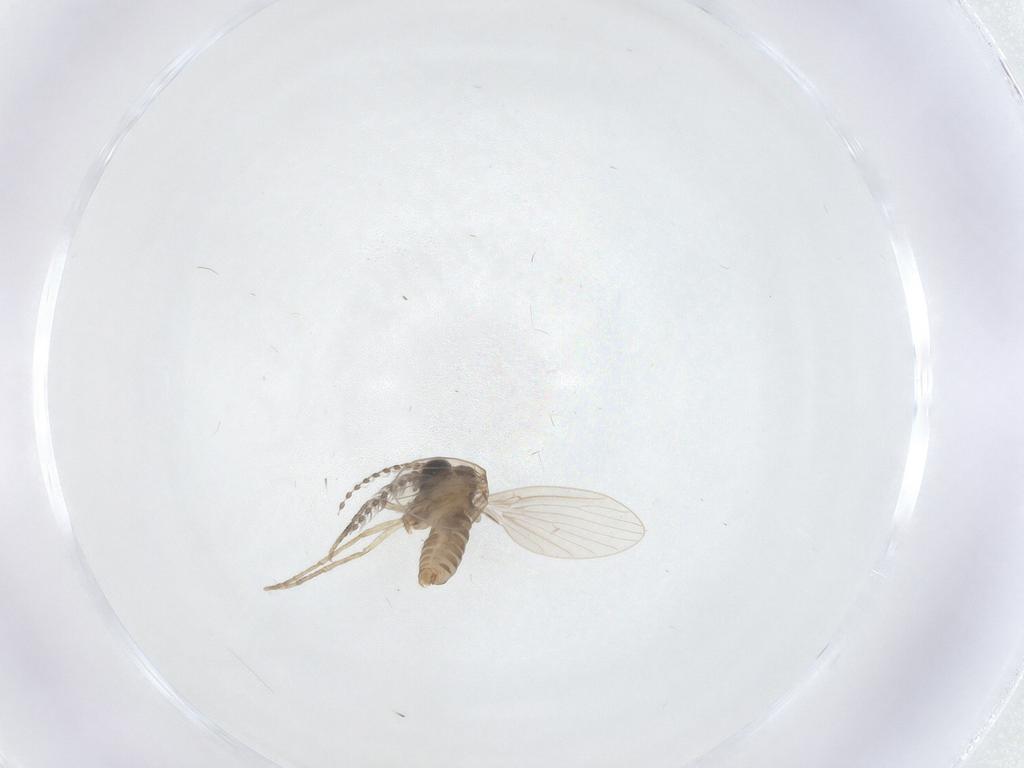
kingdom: Animalia
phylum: Arthropoda
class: Insecta
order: Diptera
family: Psychodidae
